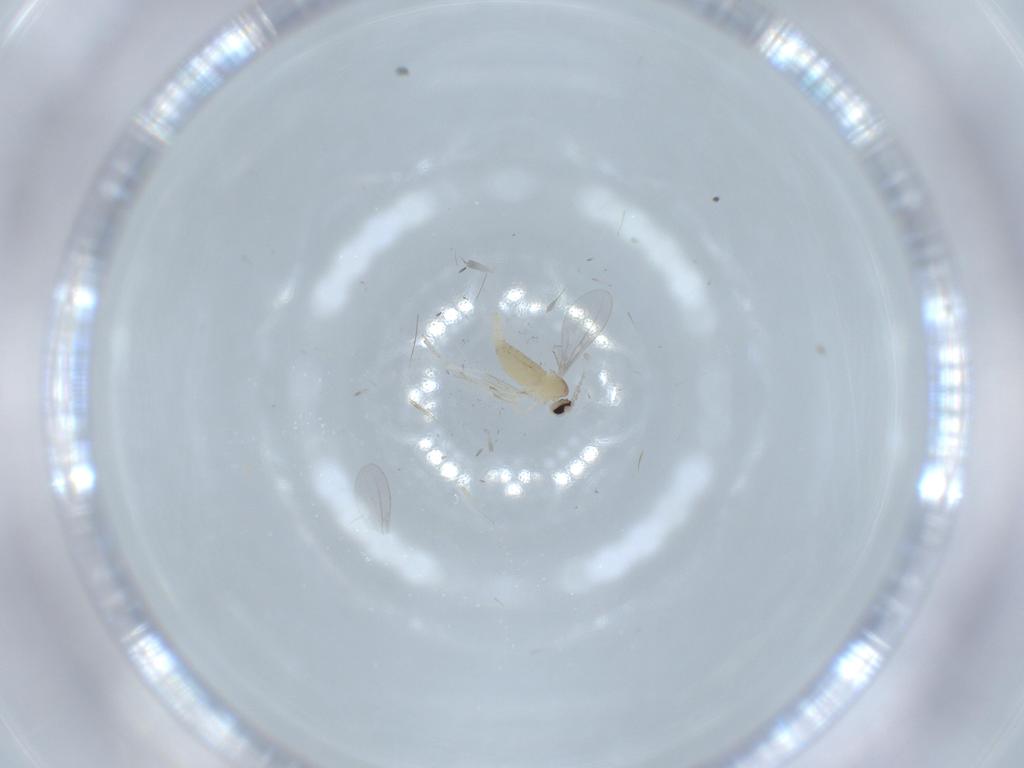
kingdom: Animalia
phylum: Arthropoda
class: Insecta
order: Diptera
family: Cecidomyiidae
